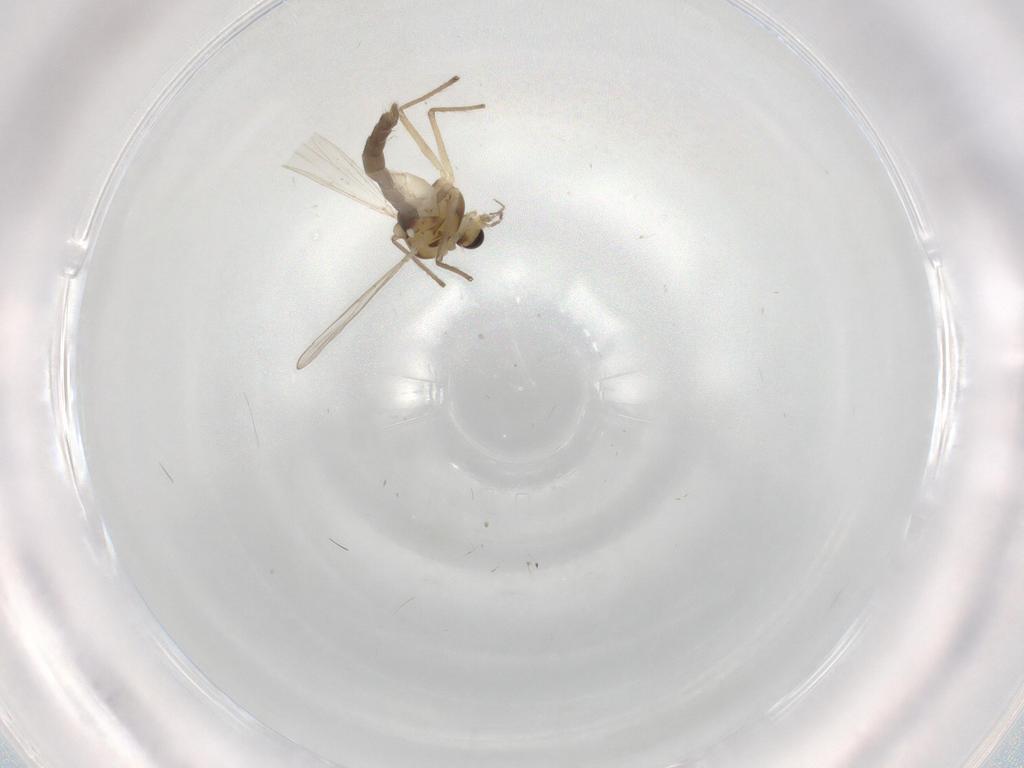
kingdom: Animalia
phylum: Arthropoda
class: Insecta
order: Diptera
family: Chironomidae
